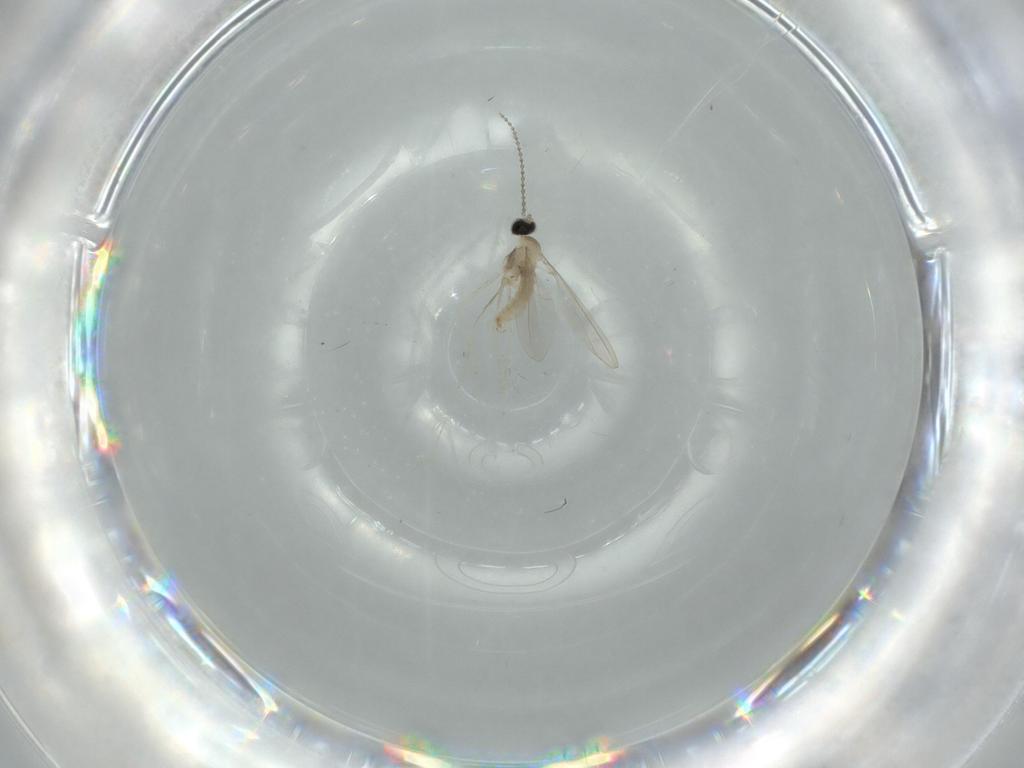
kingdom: Animalia
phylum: Arthropoda
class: Insecta
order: Diptera
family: Cecidomyiidae
